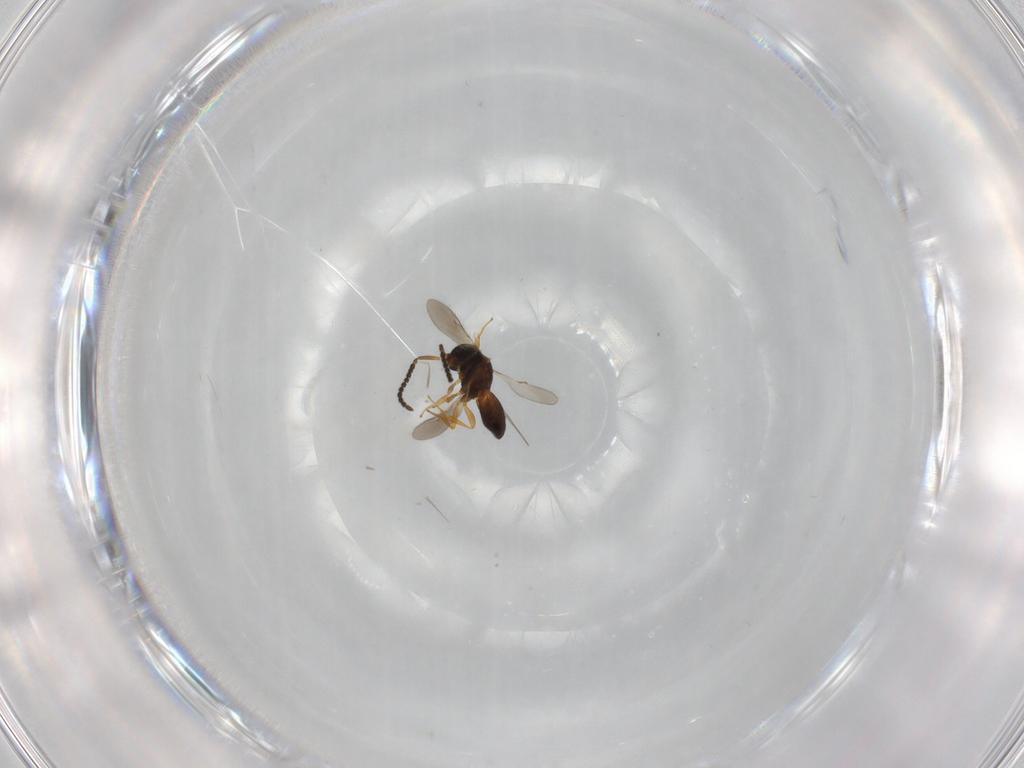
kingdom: Animalia
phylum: Arthropoda
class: Insecta
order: Hymenoptera
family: Scelionidae
